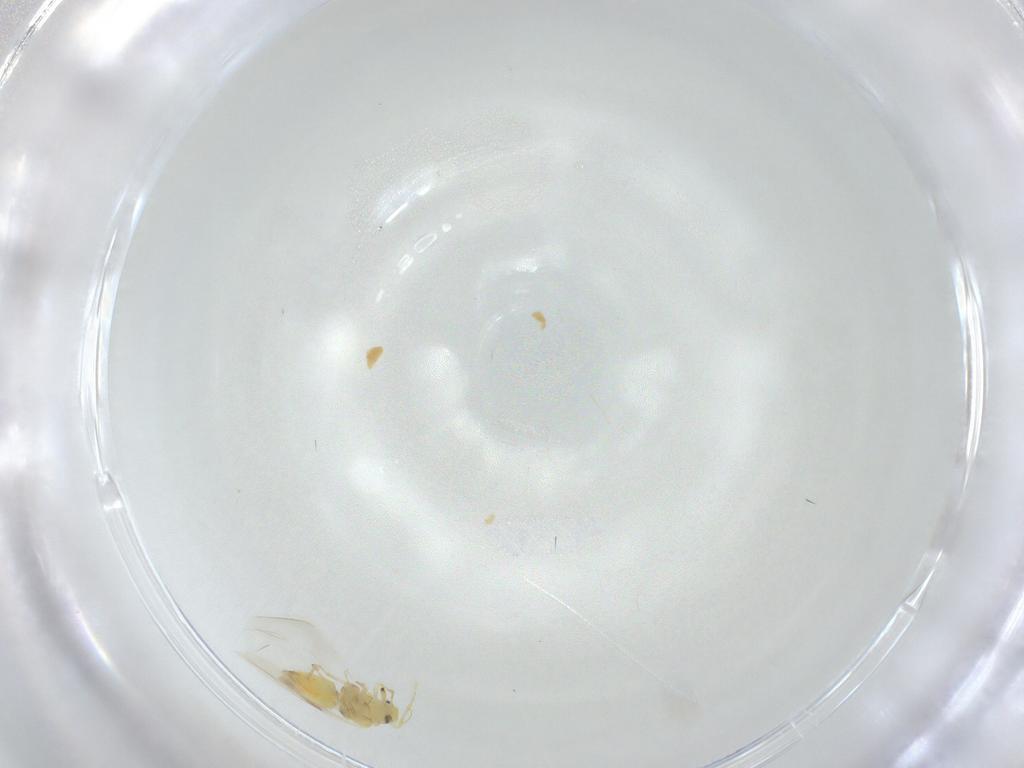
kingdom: Animalia
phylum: Arthropoda
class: Insecta
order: Hemiptera
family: Aleyrodidae
